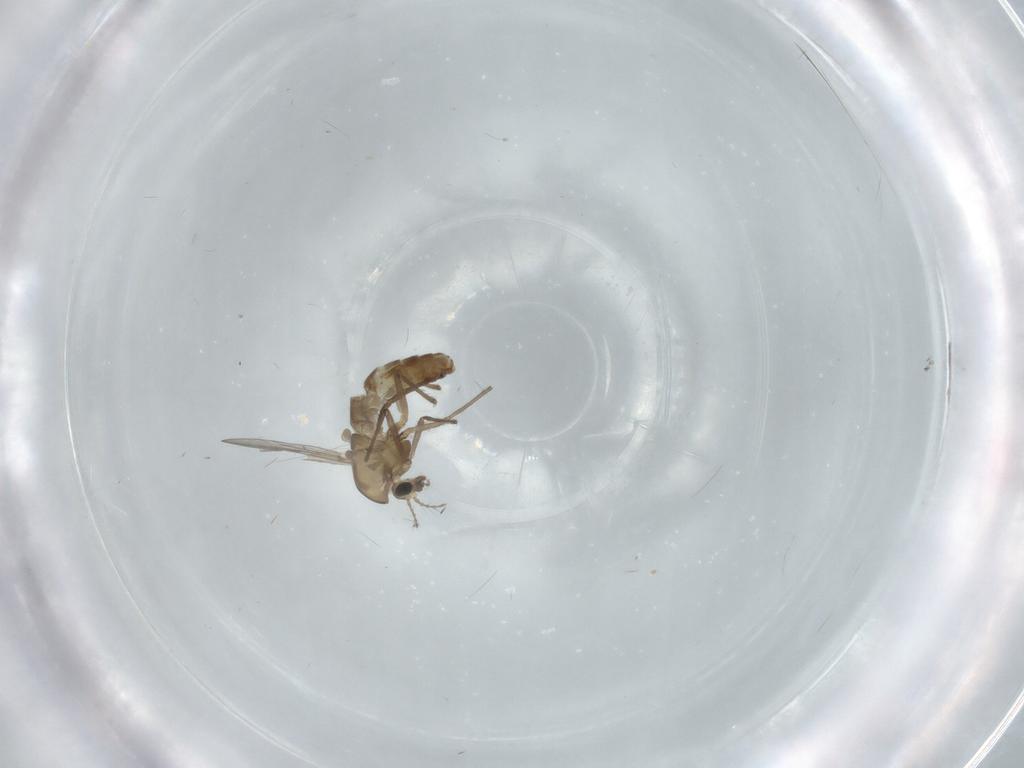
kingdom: Animalia
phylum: Arthropoda
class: Insecta
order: Diptera
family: Chironomidae
